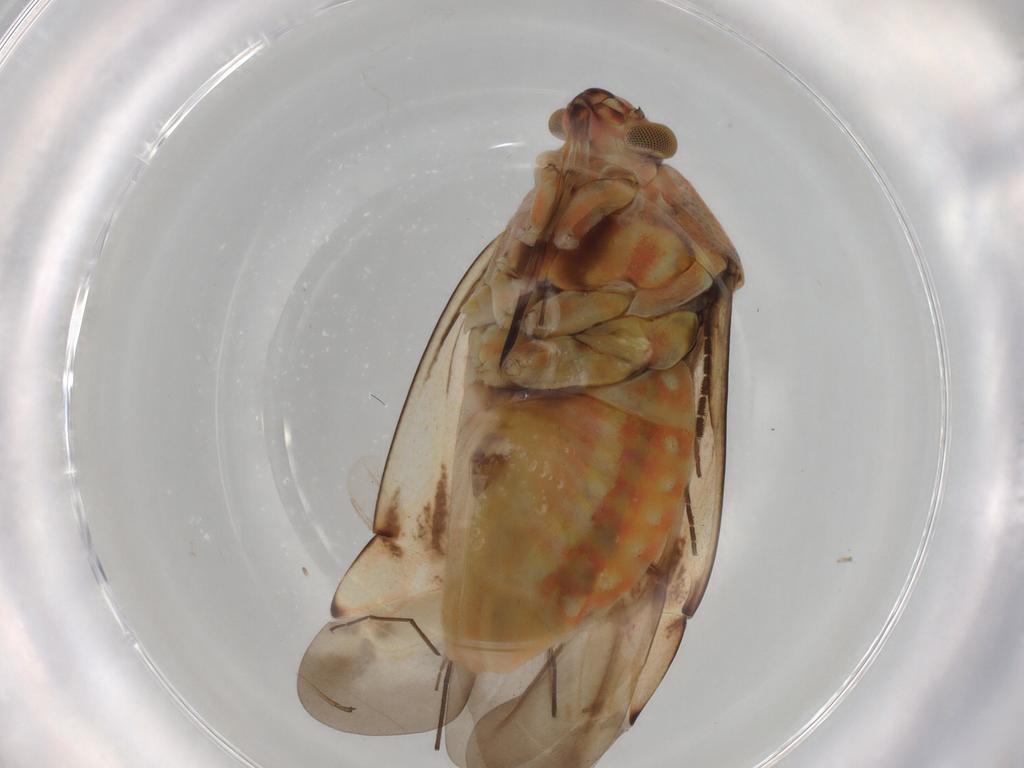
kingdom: Animalia
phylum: Arthropoda
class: Insecta
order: Hemiptera
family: Miridae
